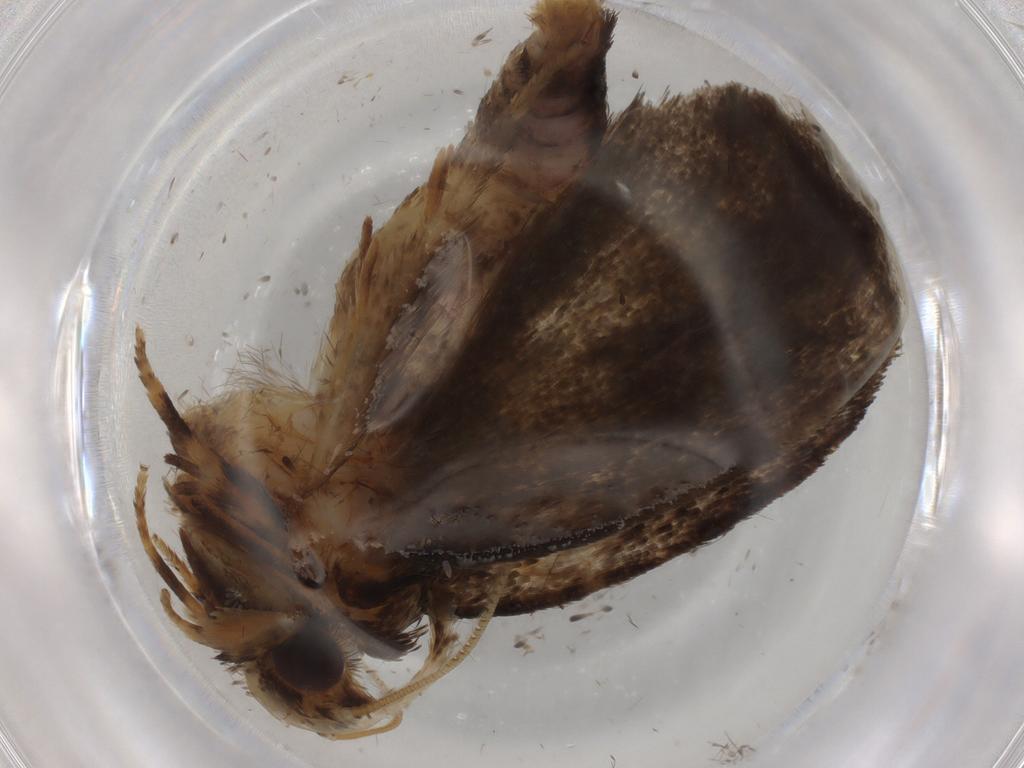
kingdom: Animalia
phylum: Arthropoda
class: Insecta
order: Lepidoptera
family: Tineidae
